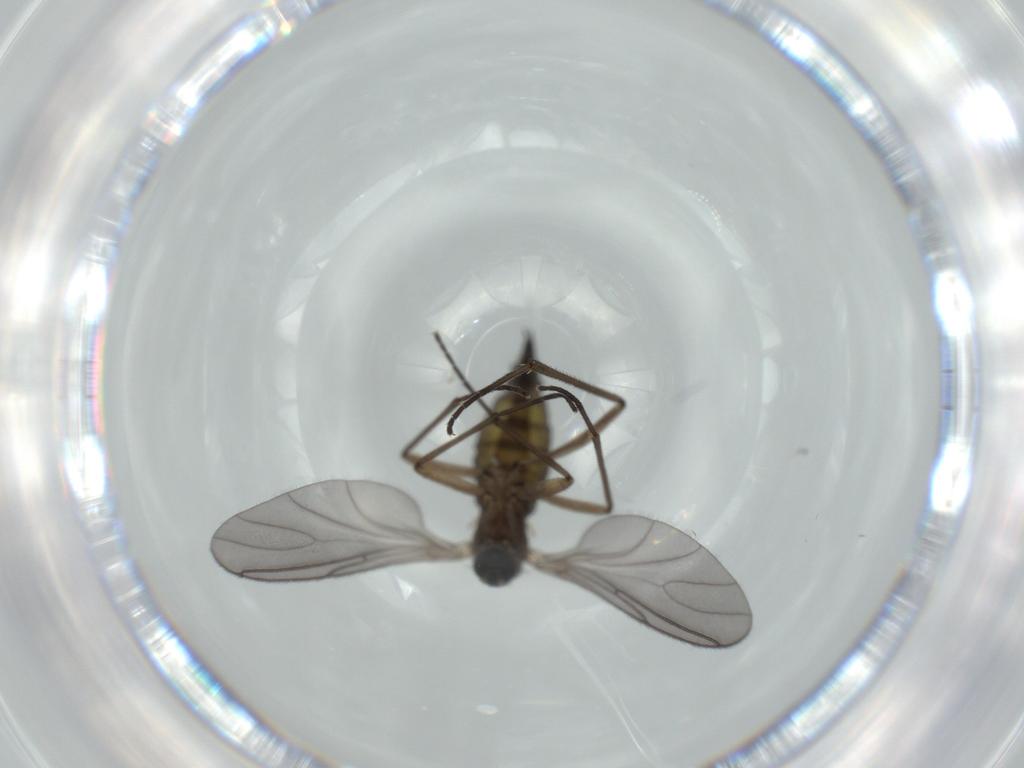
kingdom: Animalia
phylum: Arthropoda
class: Insecta
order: Diptera
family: Sciaridae
